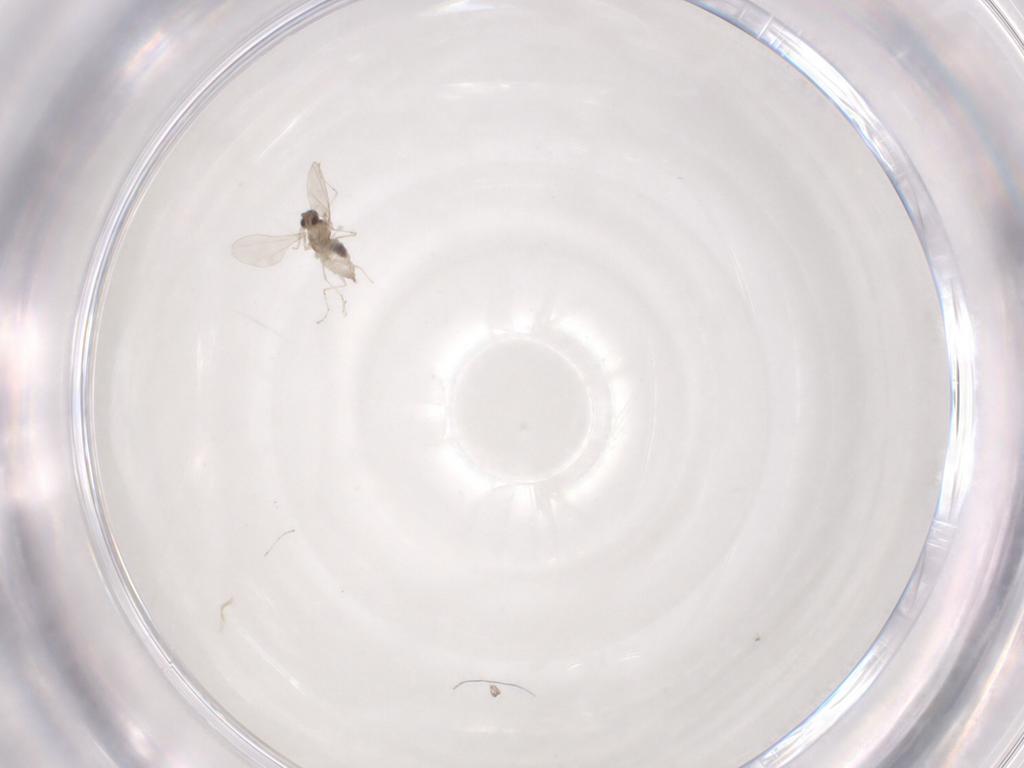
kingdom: Animalia
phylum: Arthropoda
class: Insecta
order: Diptera
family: Cecidomyiidae
